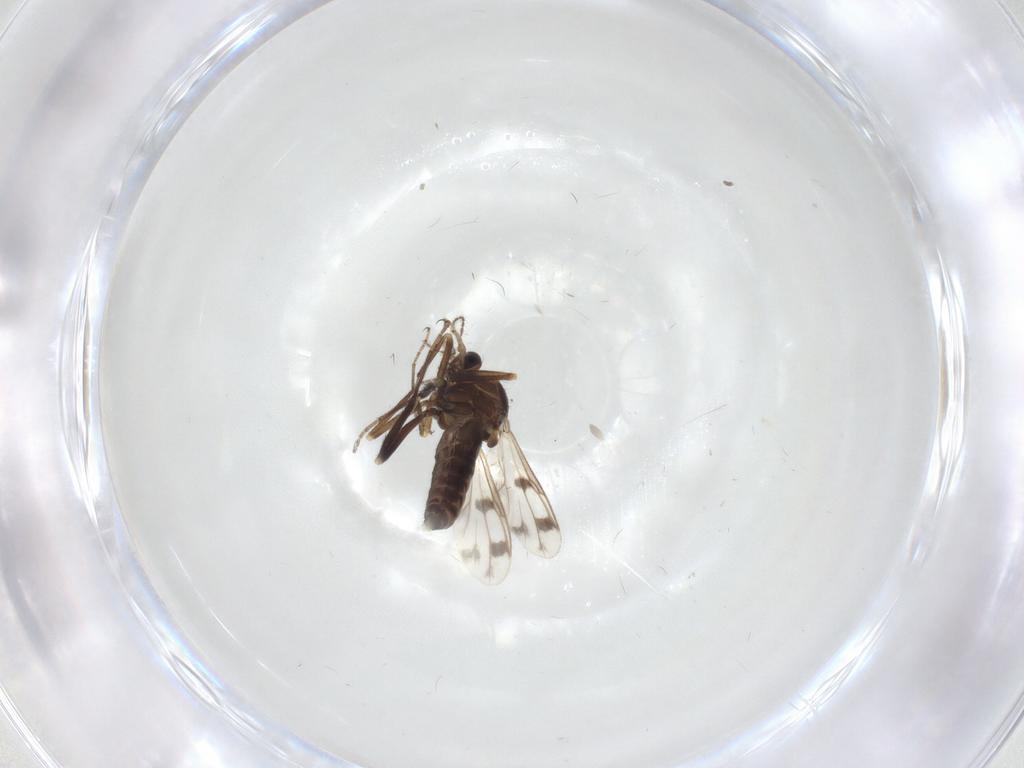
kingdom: Animalia
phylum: Arthropoda
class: Insecta
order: Diptera
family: Ceratopogonidae
